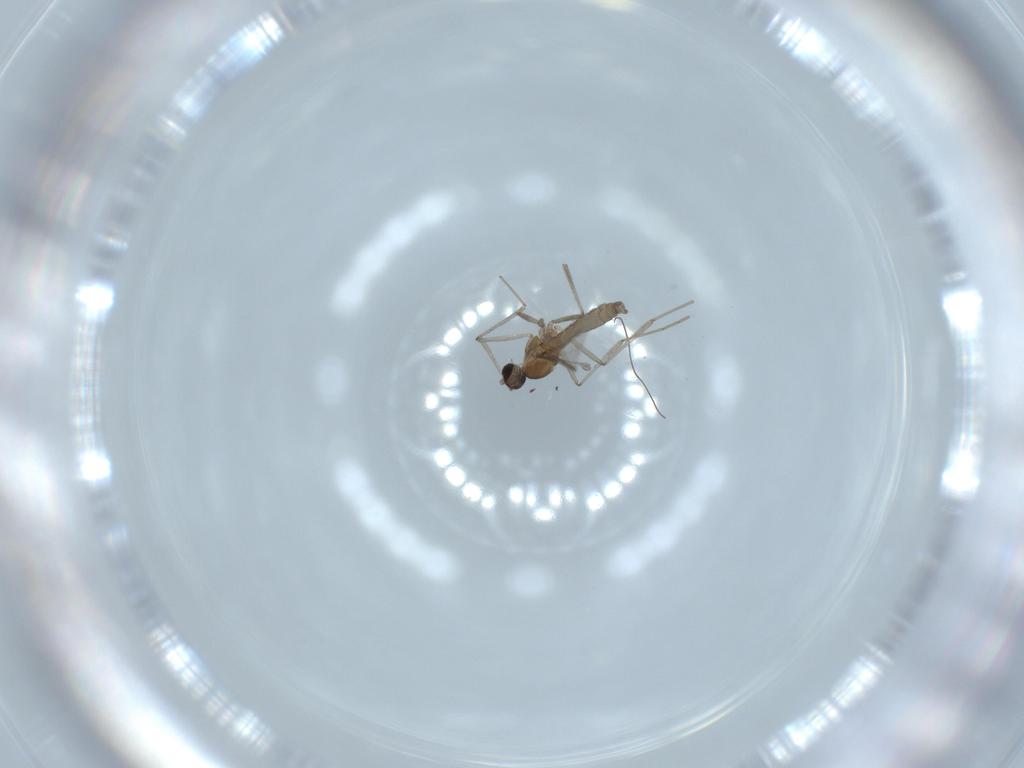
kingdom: Animalia
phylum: Arthropoda
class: Insecta
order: Diptera
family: Cecidomyiidae
